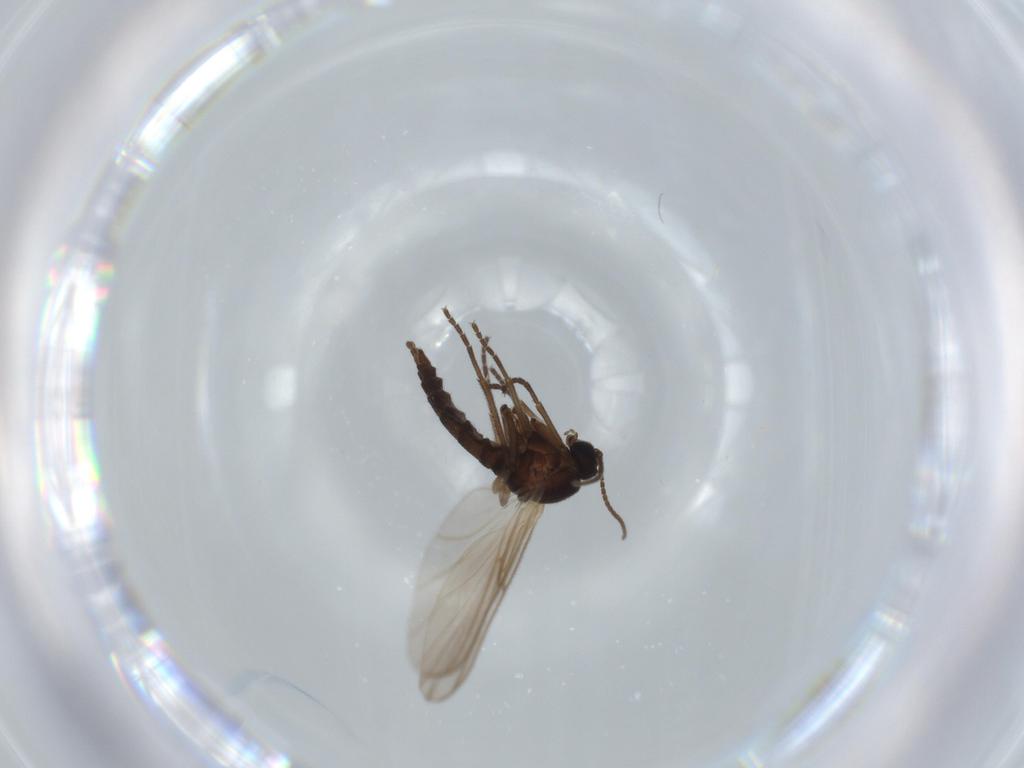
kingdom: Animalia
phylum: Arthropoda
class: Insecta
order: Diptera
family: Sciaridae
